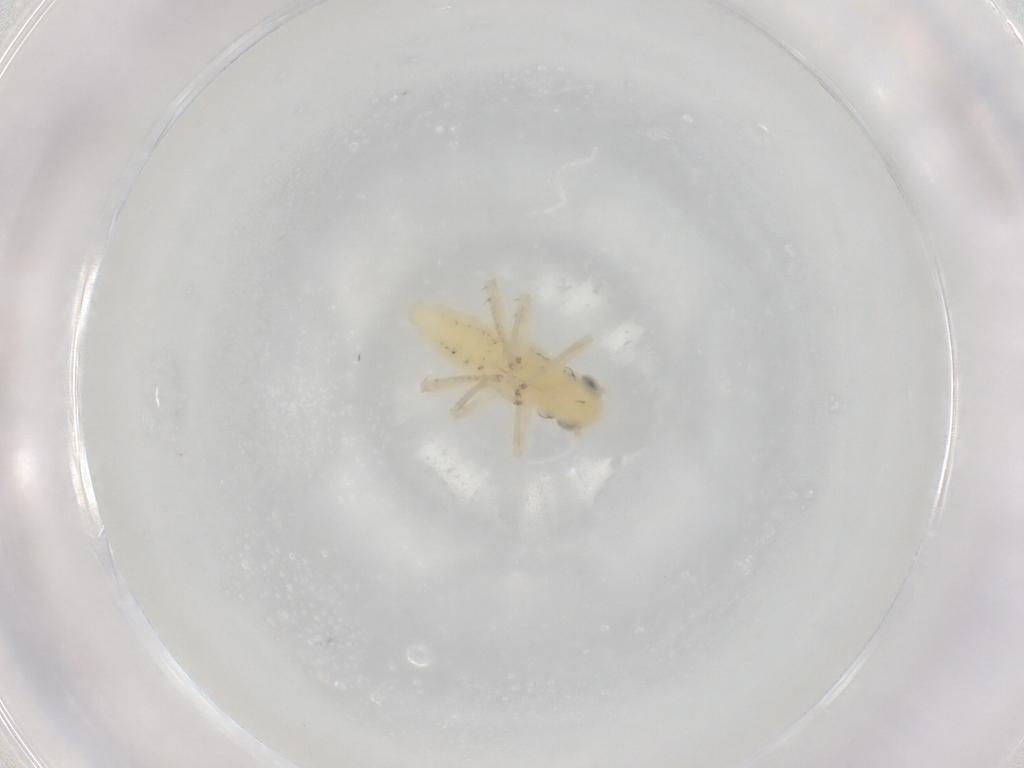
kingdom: Animalia
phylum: Arthropoda
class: Insecta
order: Hemiptera
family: Cicadellidae
